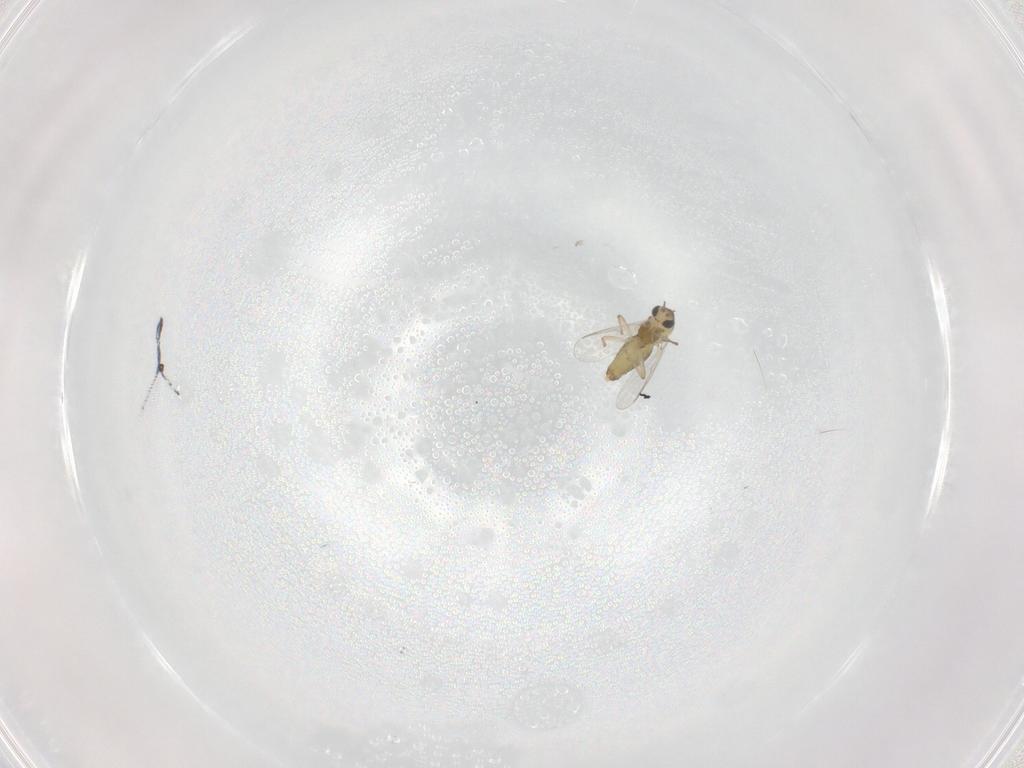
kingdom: Animalia
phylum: Arthropoda
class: Insecta
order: Diptera
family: Chironomidae
